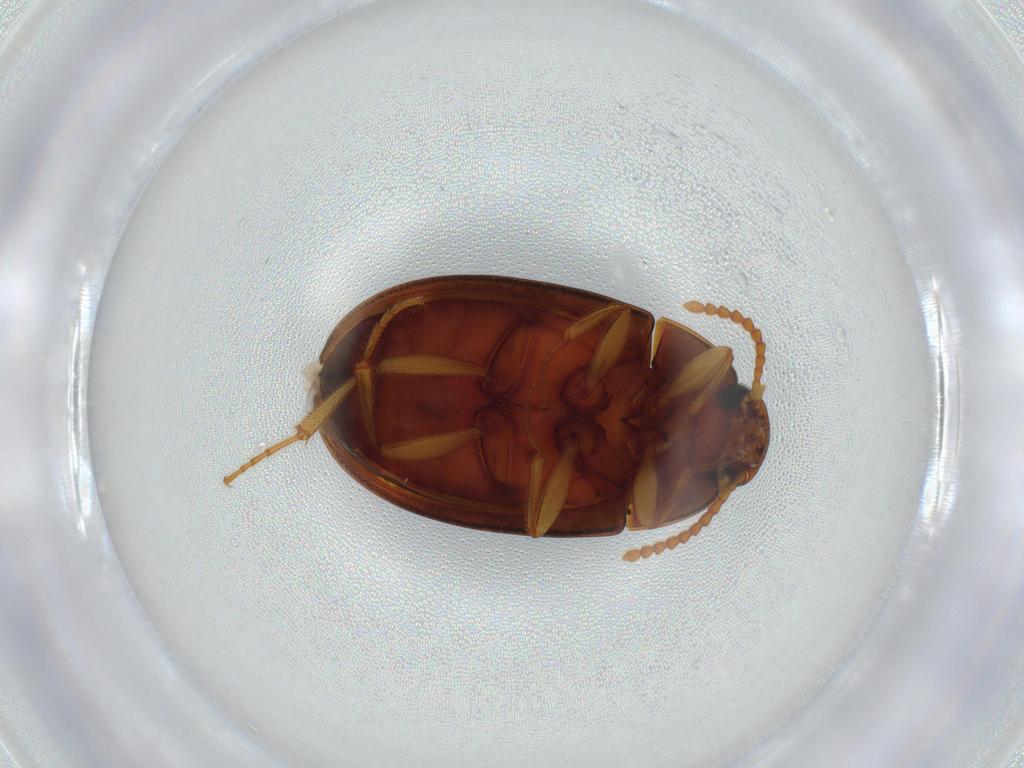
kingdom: Animalia
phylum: Arthropoda
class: Insecta
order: Coleoptera
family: Tenebrionidae
